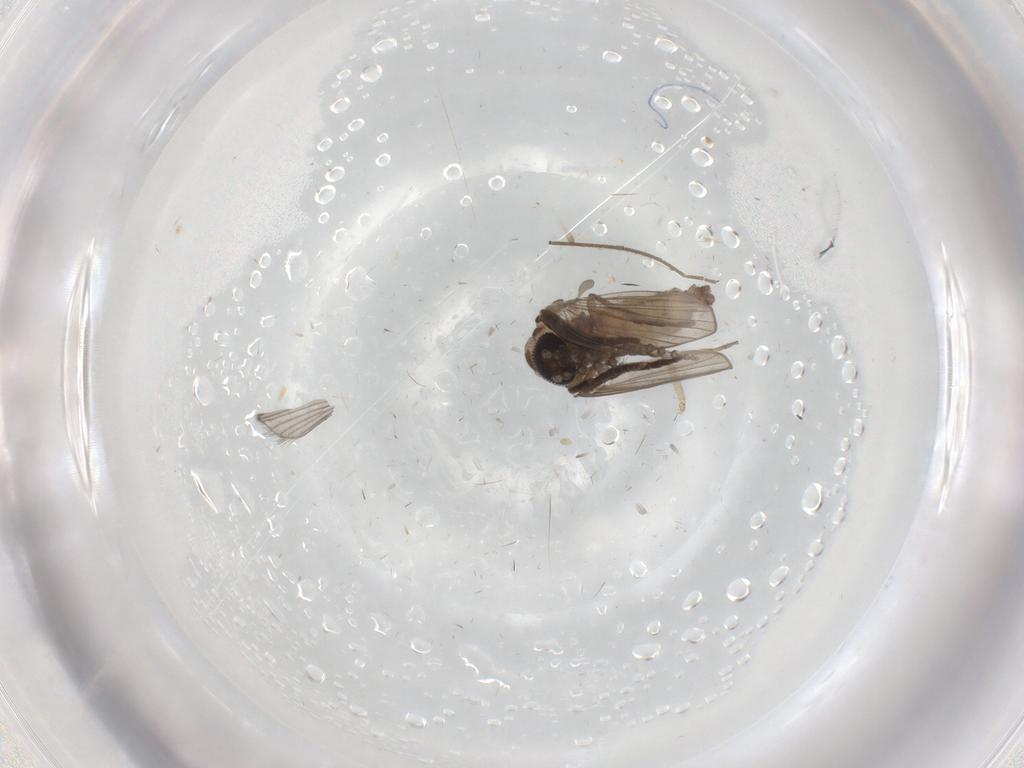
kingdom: Animalia
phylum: Arthropoda
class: Insecta
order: Diptera
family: Psychodidae
